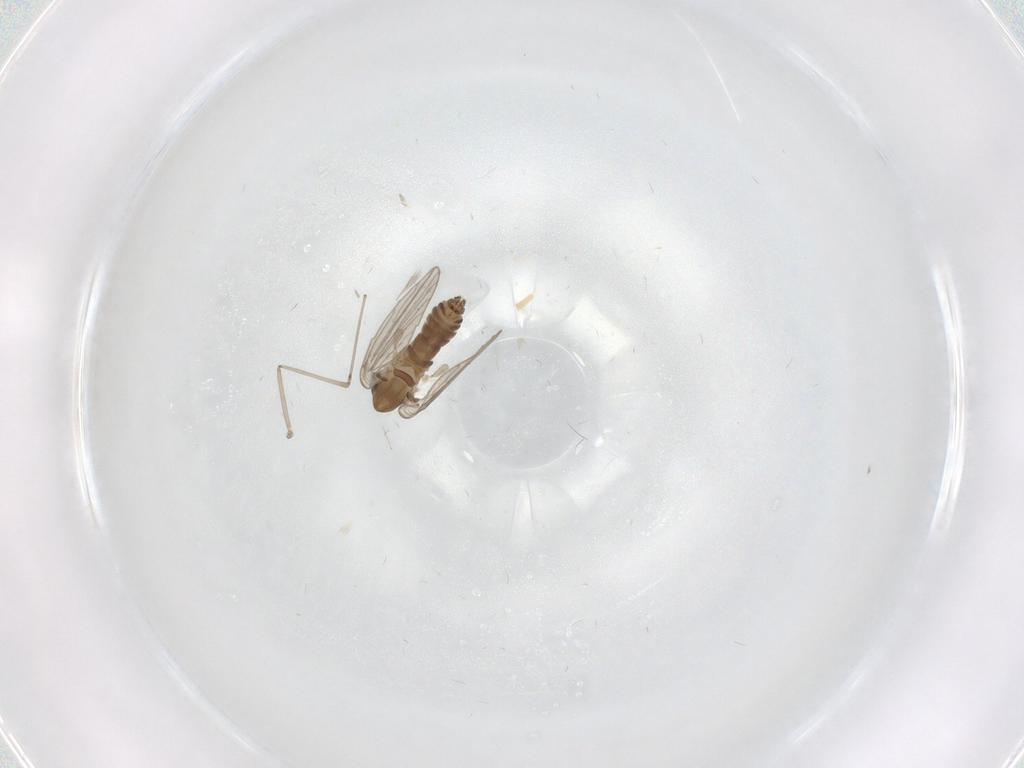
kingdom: Animalia
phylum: Arthropoda
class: Insecta
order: Diptera
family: Psychodidae
